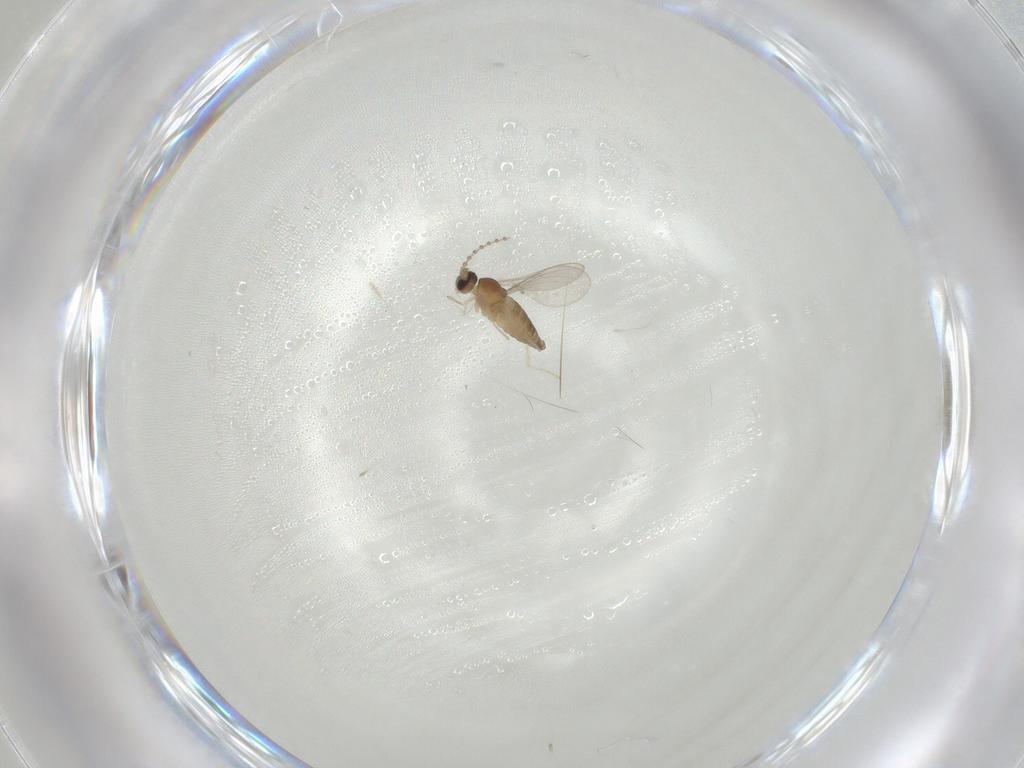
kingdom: Animalia
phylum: Arthropoda
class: Insecta
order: Diptera
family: Cecidomyiidae
